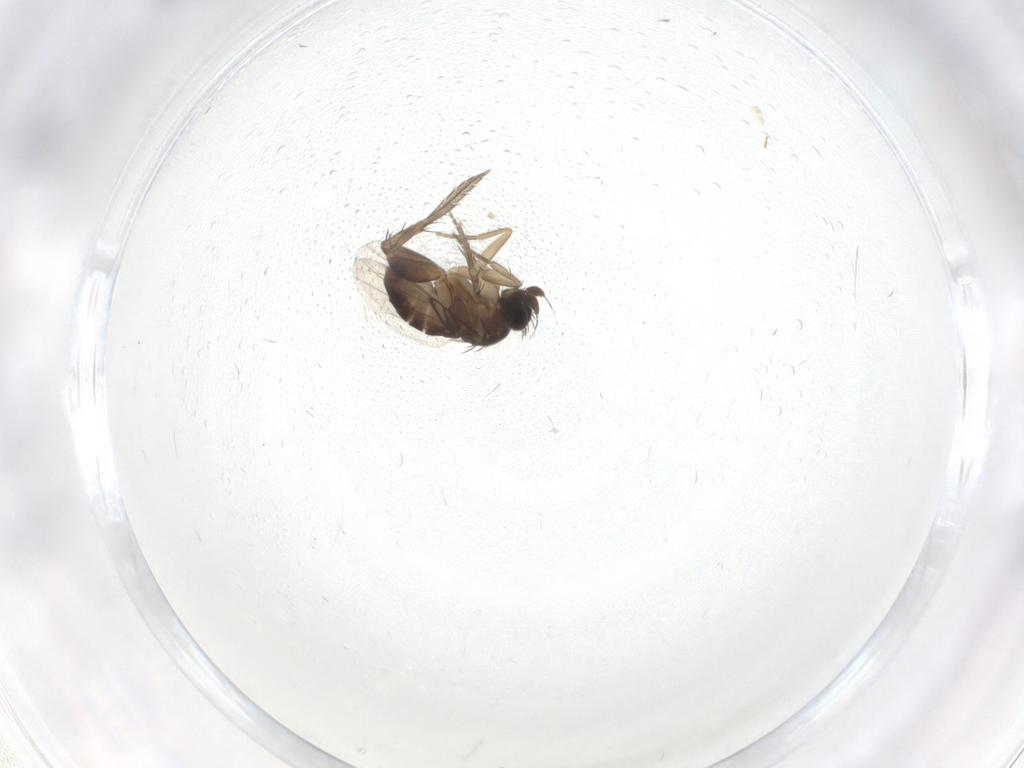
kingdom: Animalia
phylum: Arthropoda
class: Insecta
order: Diptera
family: Phoridae
